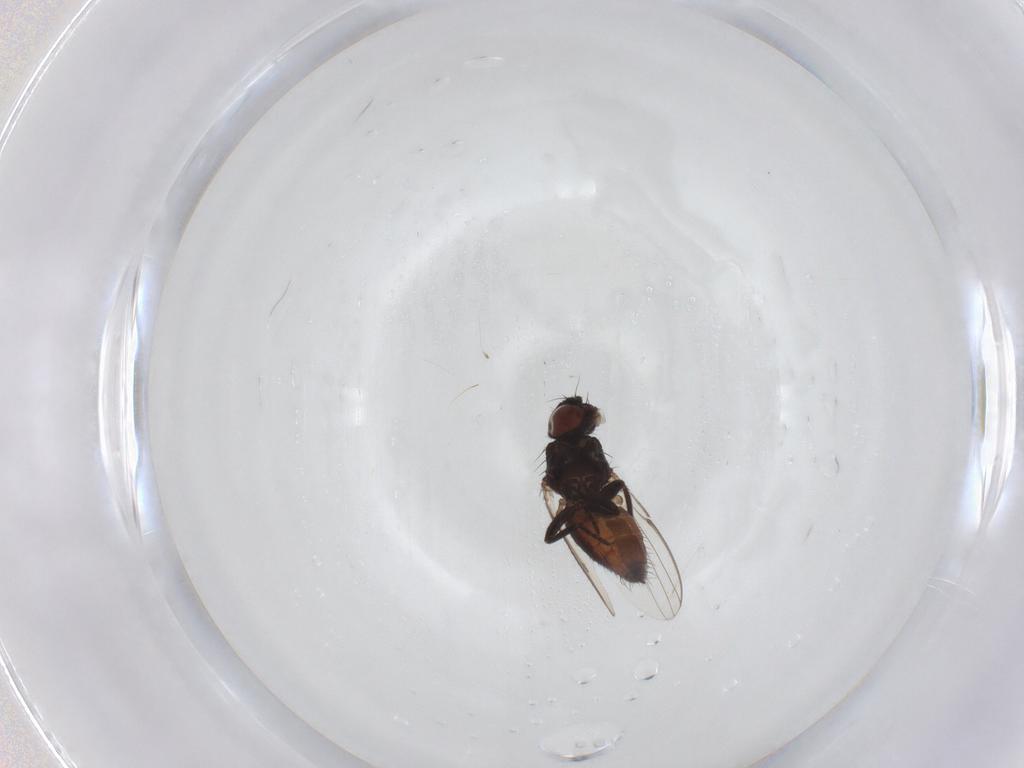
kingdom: Animalia
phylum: Arthropoda
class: Insecta
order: Diptera
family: Milichiidae
